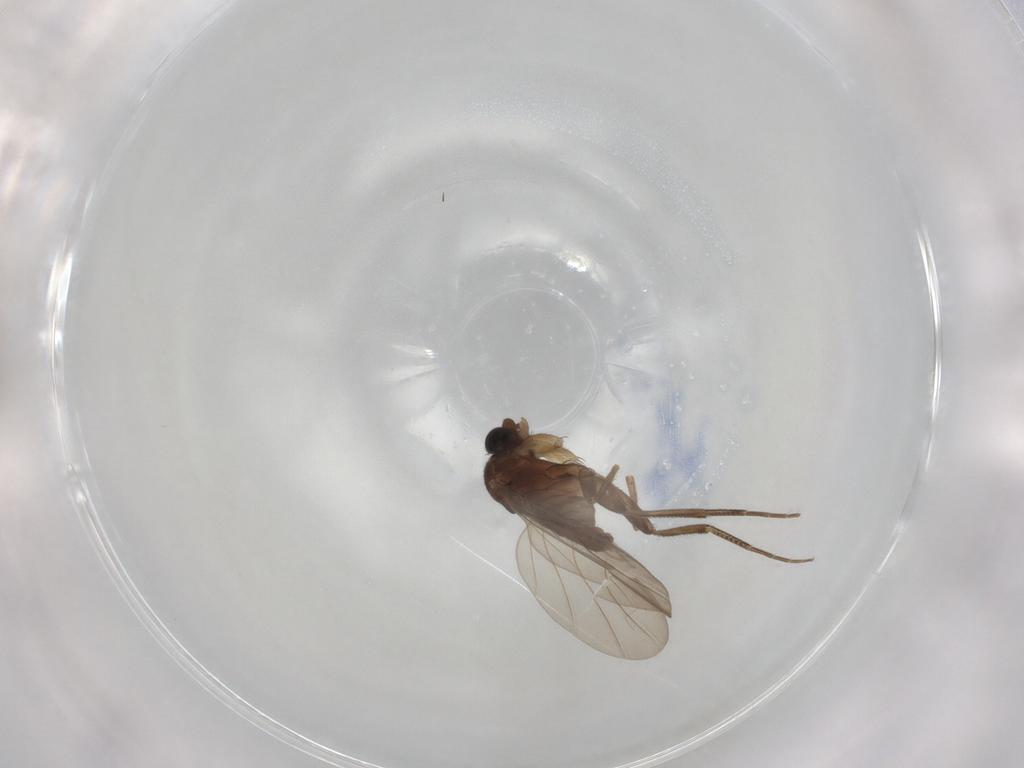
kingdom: Animalia
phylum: Arthropoda
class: Insecta
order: Diptera
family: Phoridae
